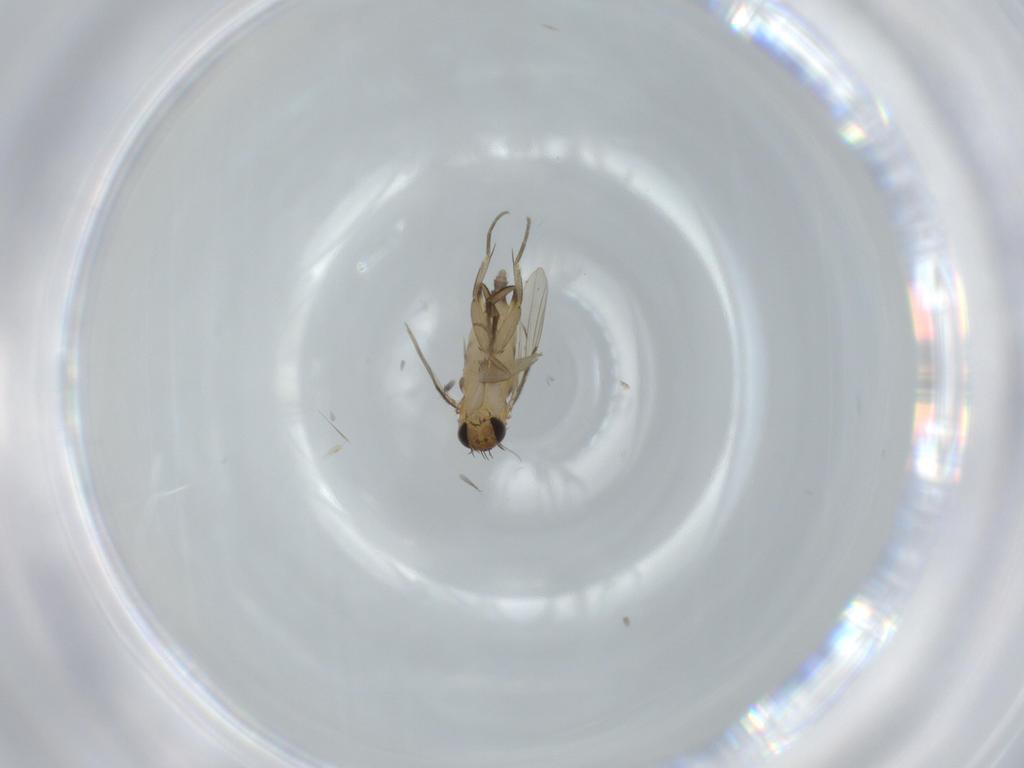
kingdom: Animalia
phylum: Arthropoda
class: Insecta
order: Diptera
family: Phoridae
